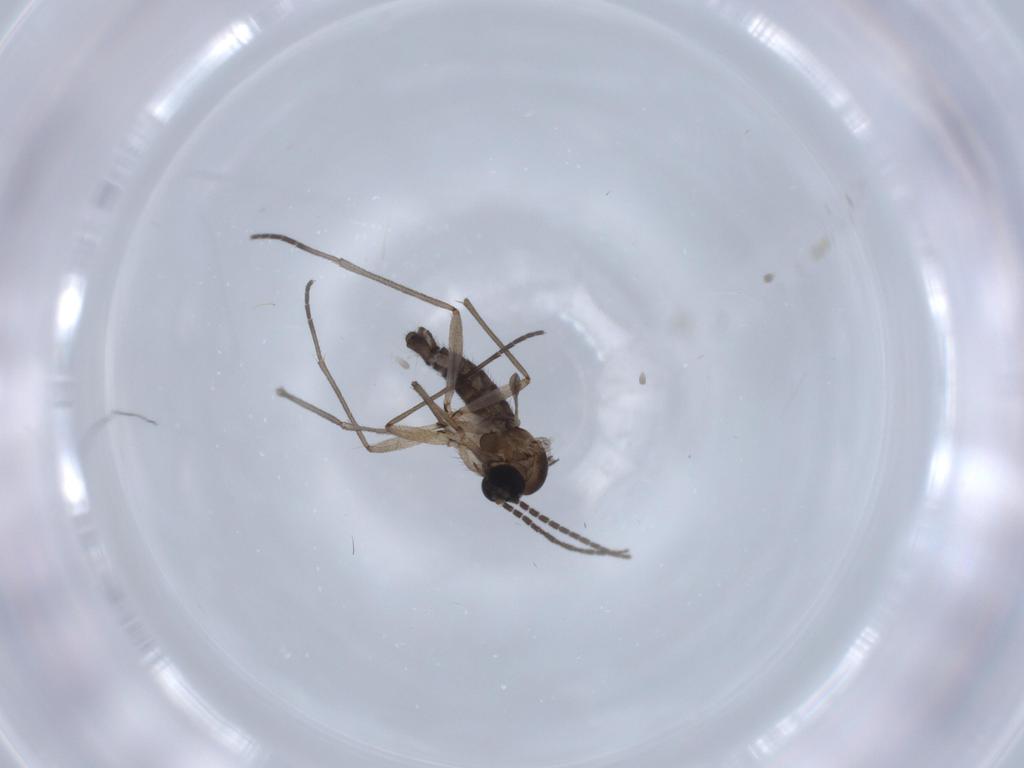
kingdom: Animalia
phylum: Arthropoda
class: Insecta
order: Diptera
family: Sciaridae
